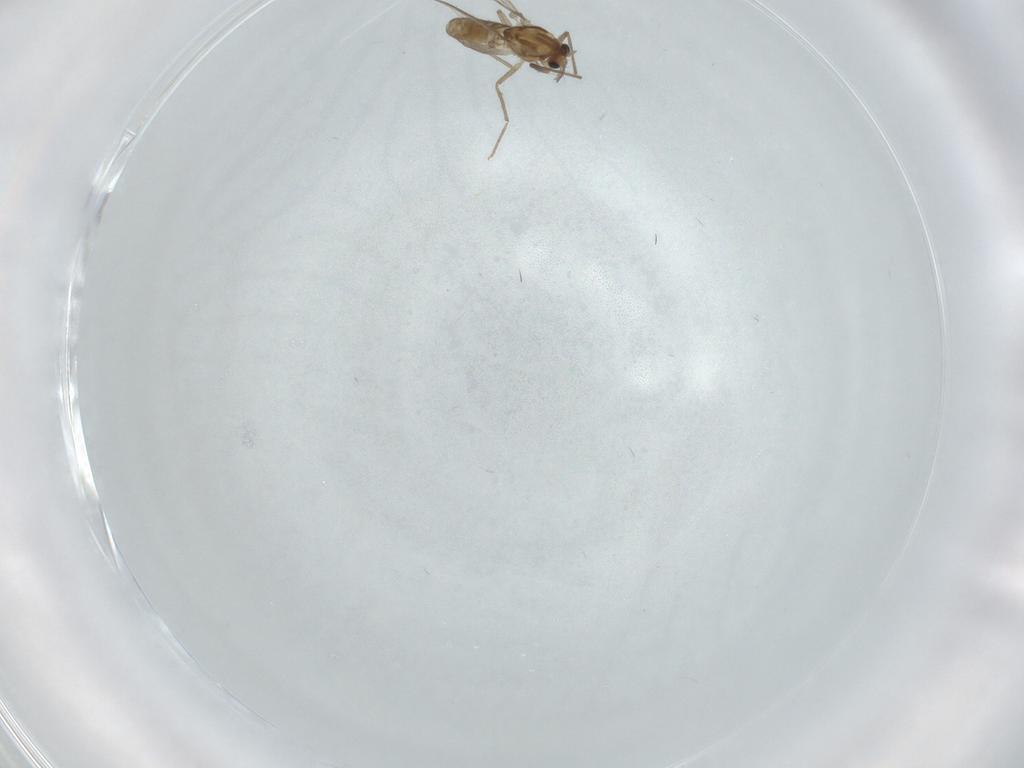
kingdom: Animalia
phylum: Arthropoda
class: Insecta
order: Diptera
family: Chironomidae
